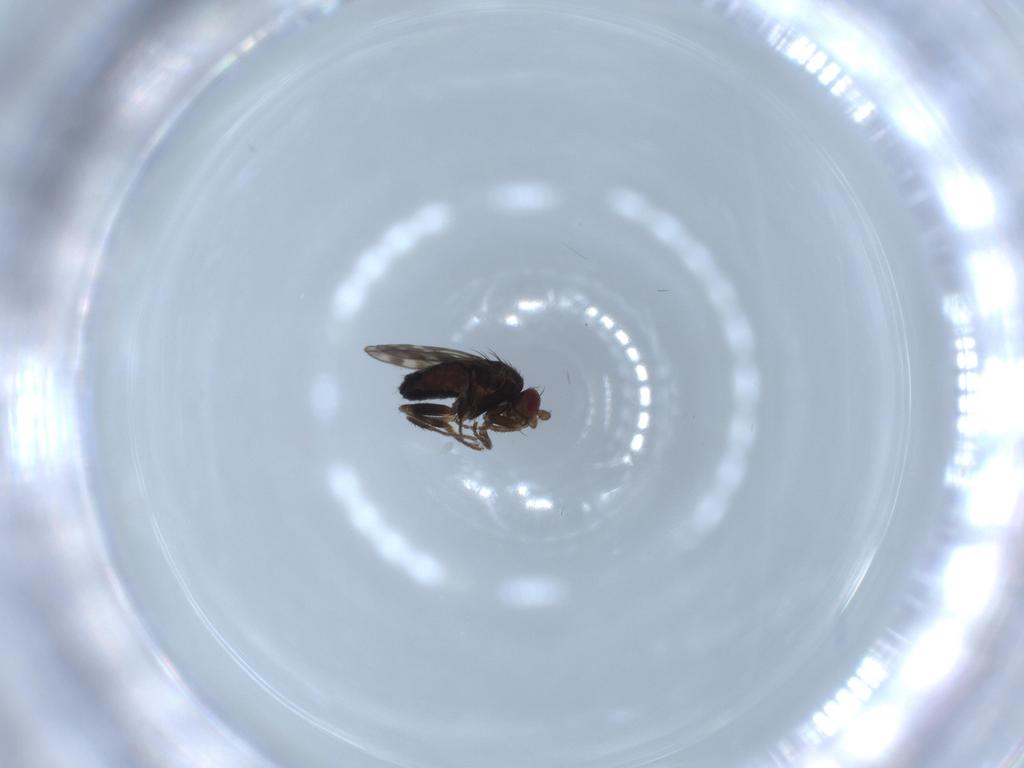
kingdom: Animalia
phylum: Arthropoda
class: Insecta
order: Diptera
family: Sphaeroceridae
